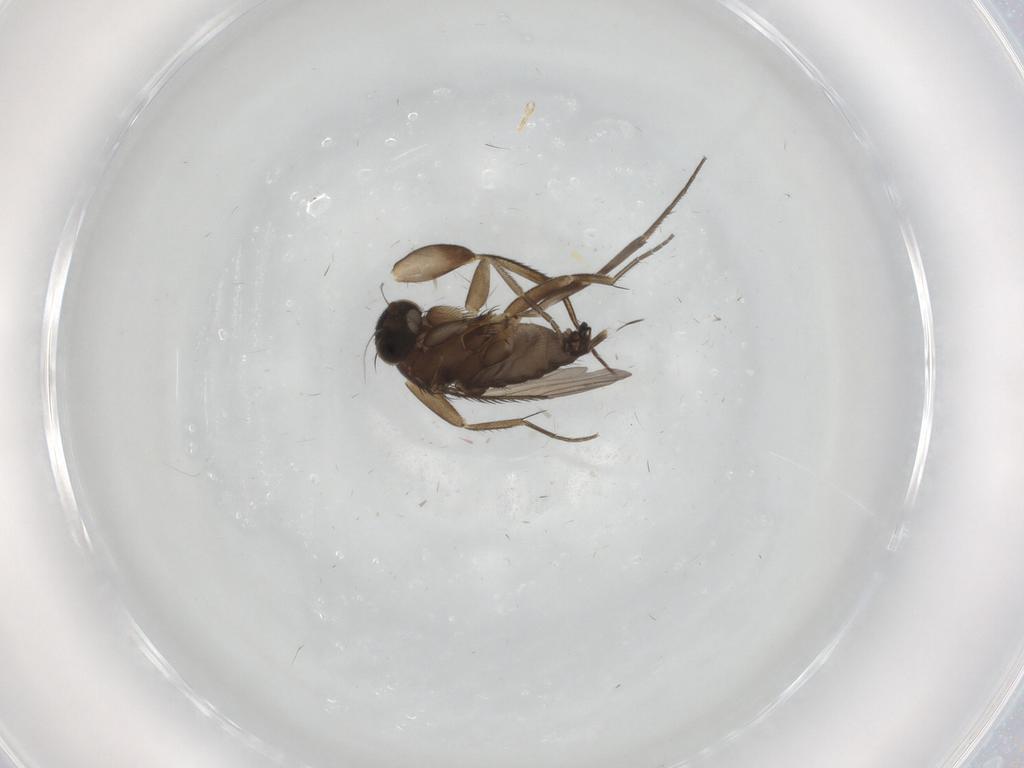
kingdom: Animalia
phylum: Arthropoda
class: Insecta
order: Diptera
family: Phoridae
